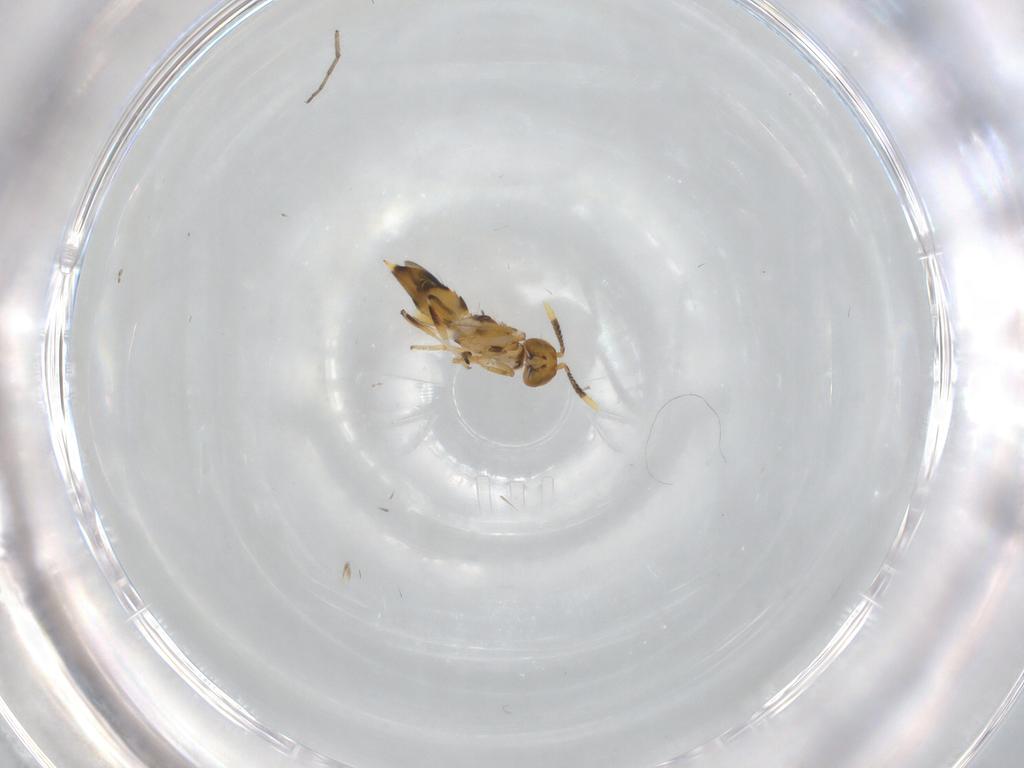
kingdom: Animalia
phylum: Arthropoda
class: Insecta
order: Hymenoptera
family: Diapriidae
